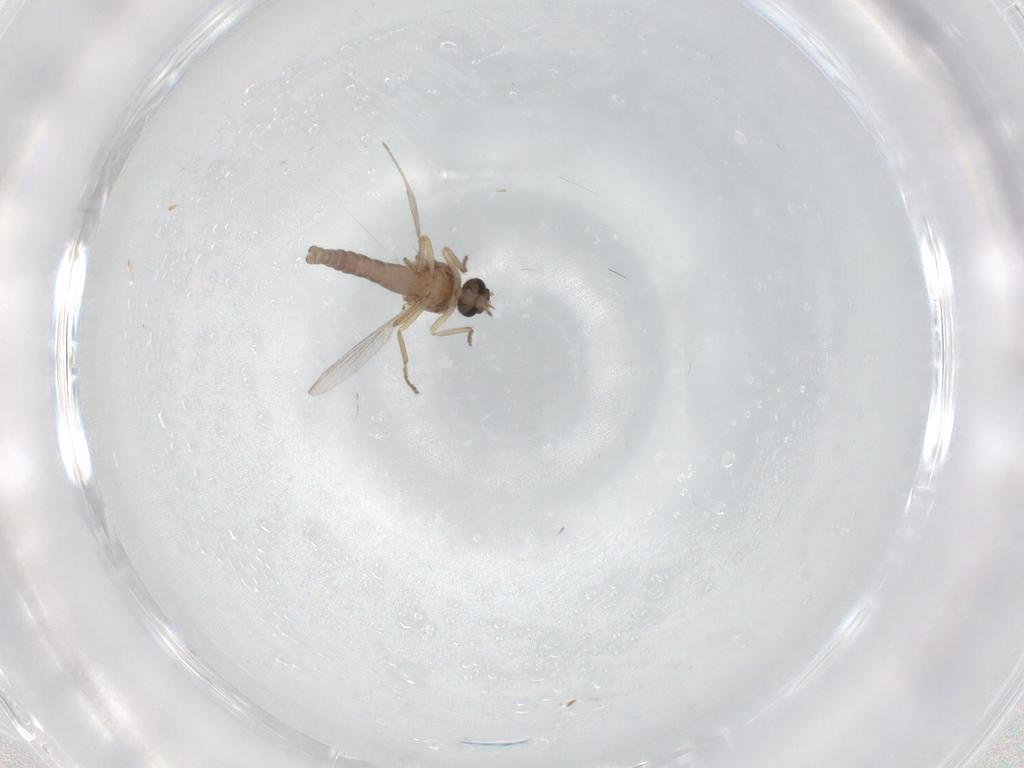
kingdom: Animalia
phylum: Arthropoda
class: Insecta
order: Diptera
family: Ceratopogonidae
